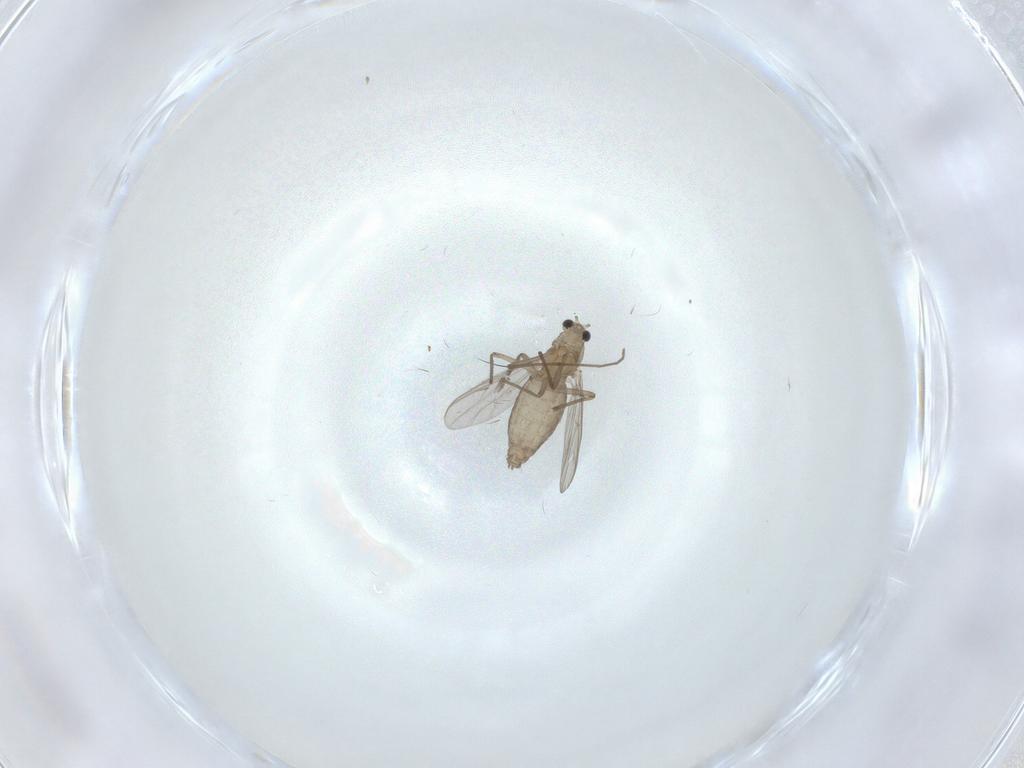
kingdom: Animalia
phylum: Arthropoda
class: Insecta
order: Diptera
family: Chironomidae
